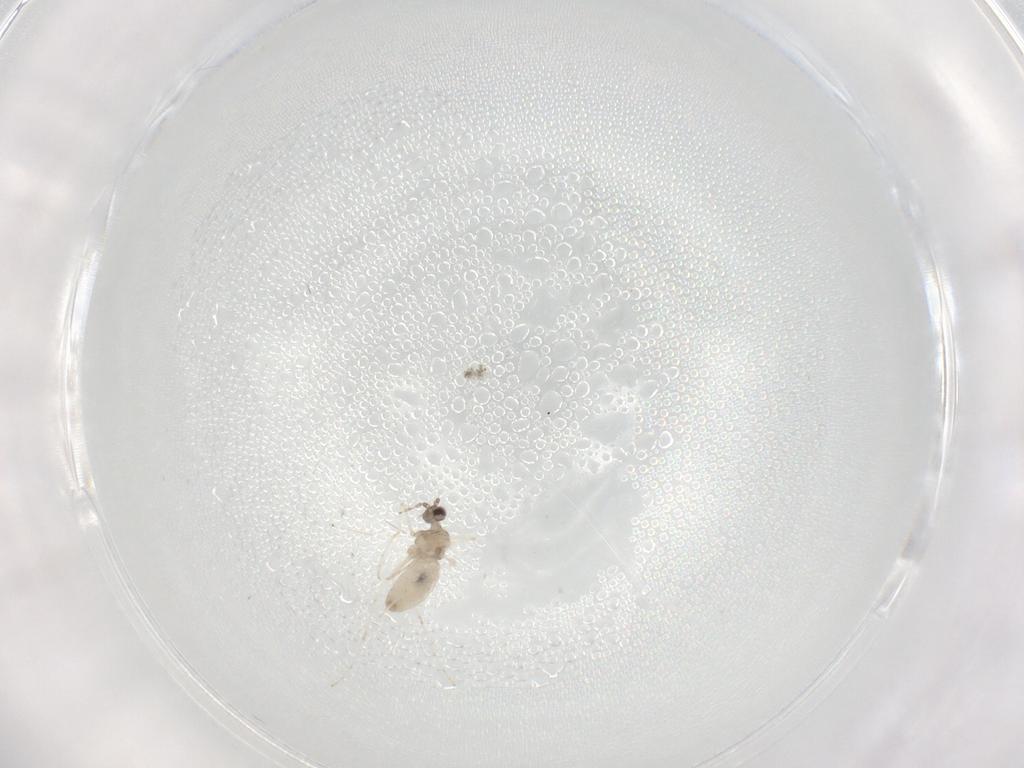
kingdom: Animalia
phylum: Arthropoda
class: Insecta
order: Diptera
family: Cecidomyiidae
